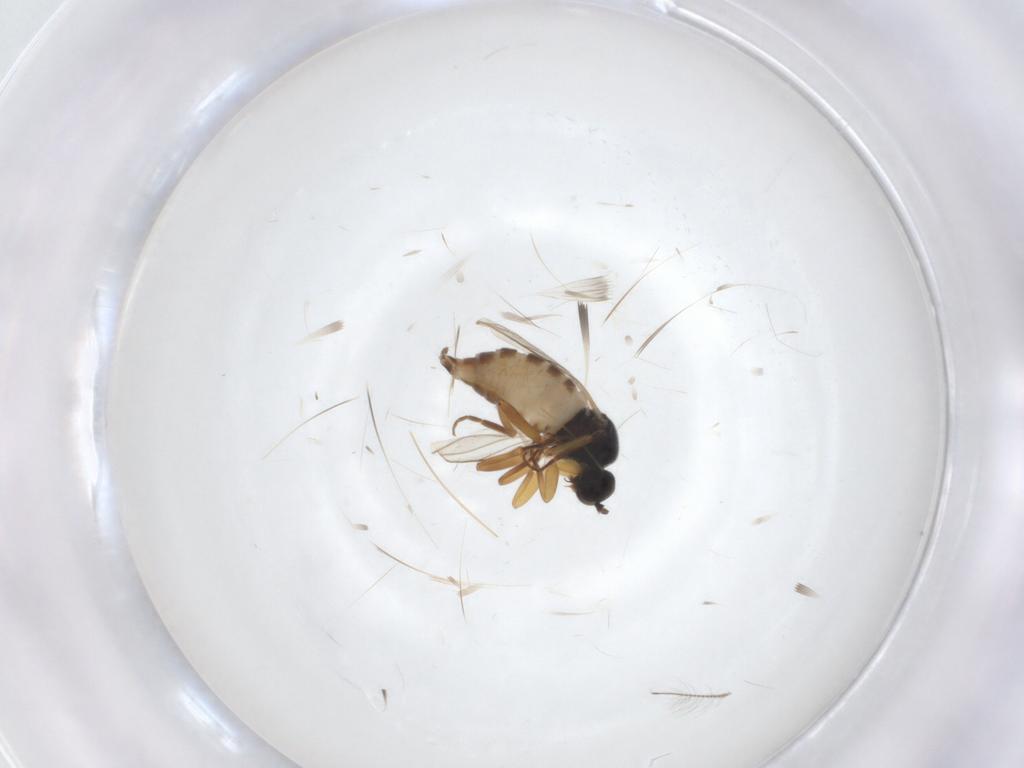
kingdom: Animalia
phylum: Arthropoda
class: Insecta
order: Diptera
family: Hybotidae
